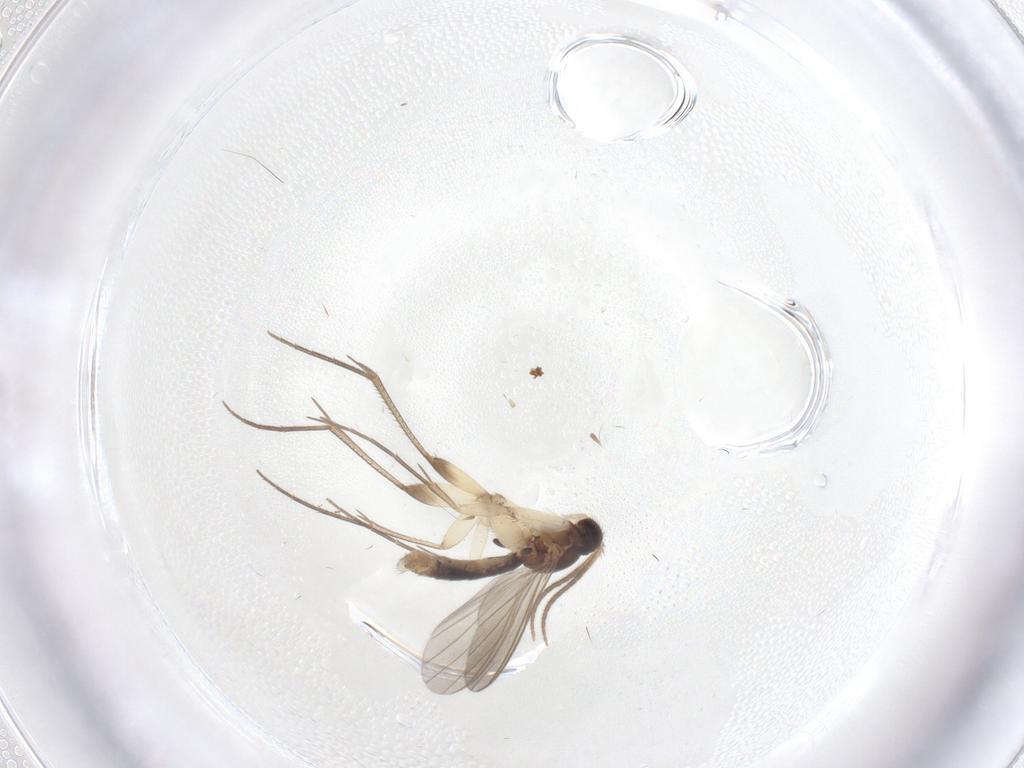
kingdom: Animalia
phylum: Arthropoda
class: Insecta
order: Diptera
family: Mycetophilidae
